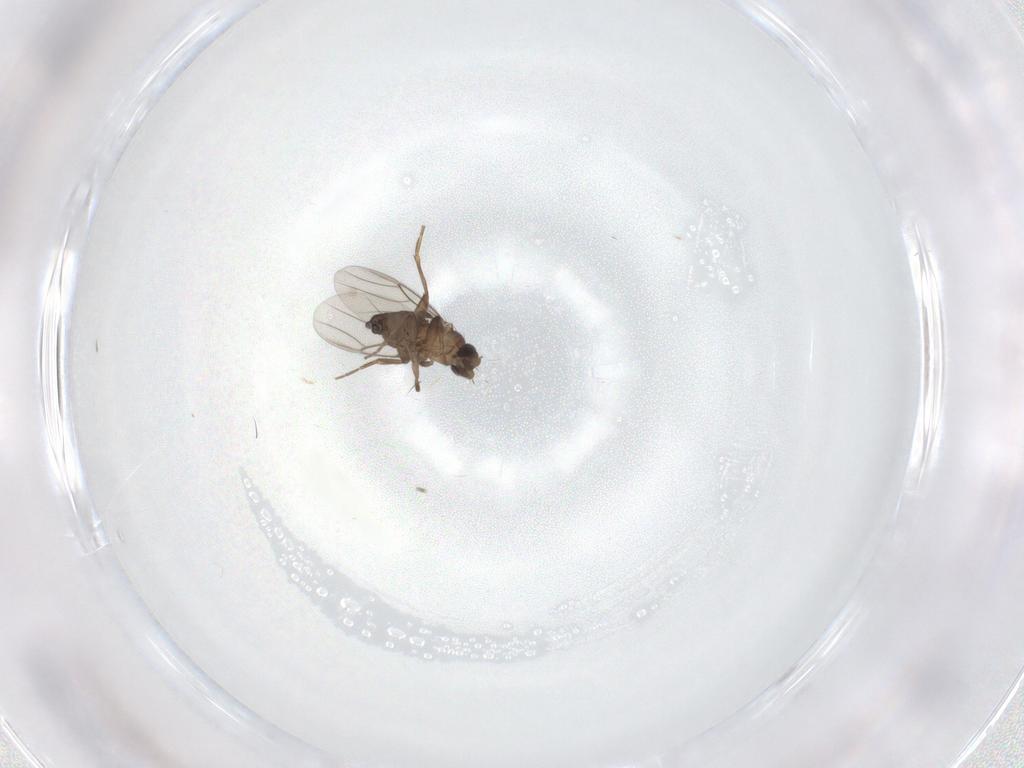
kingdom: Animalia
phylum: Arthropoda
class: Insecta
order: Diptera
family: Phoridae
